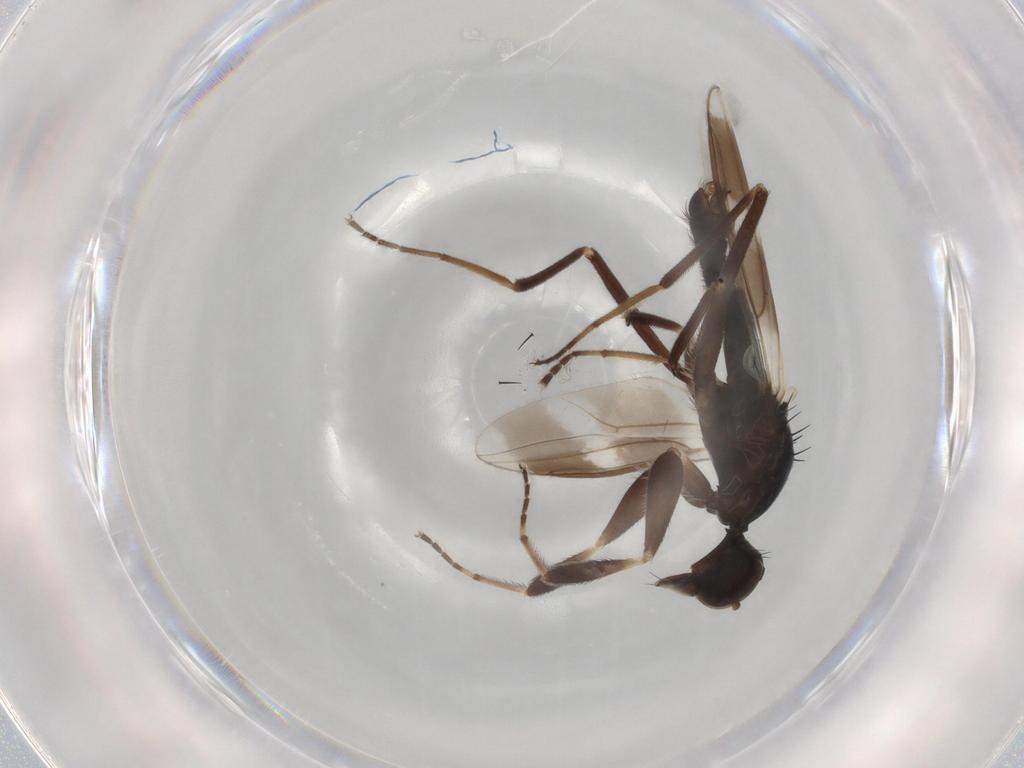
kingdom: Animalia
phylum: Arthropoda
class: Insecta
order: Diptera
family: Hybotidae
